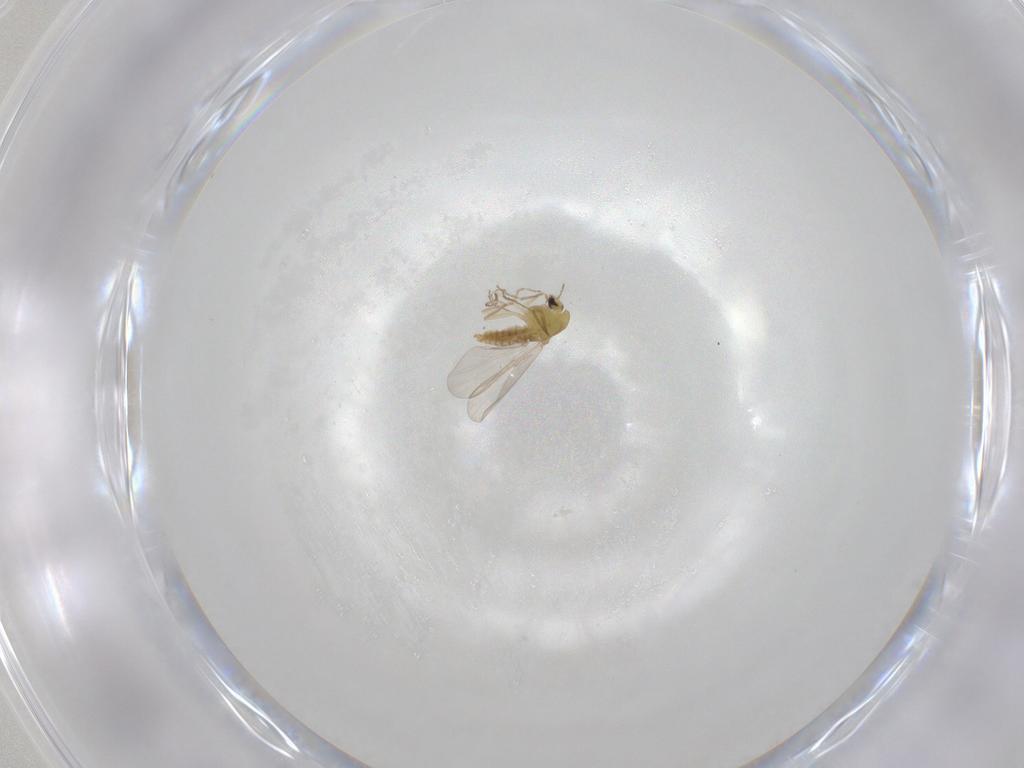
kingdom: Animalia
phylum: Arthropoda
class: Insecta
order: Diptera
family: Chironomidae
